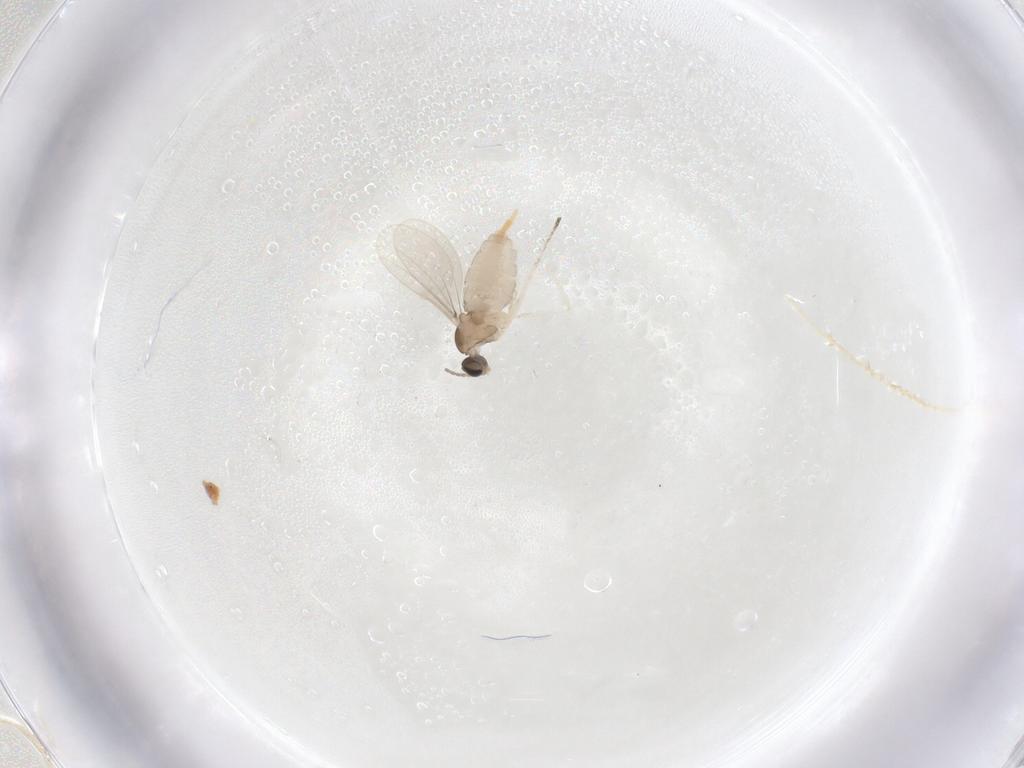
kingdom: Animalia
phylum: Arthropoda
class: Insecta
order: Diptera
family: Cecidomyiidae
